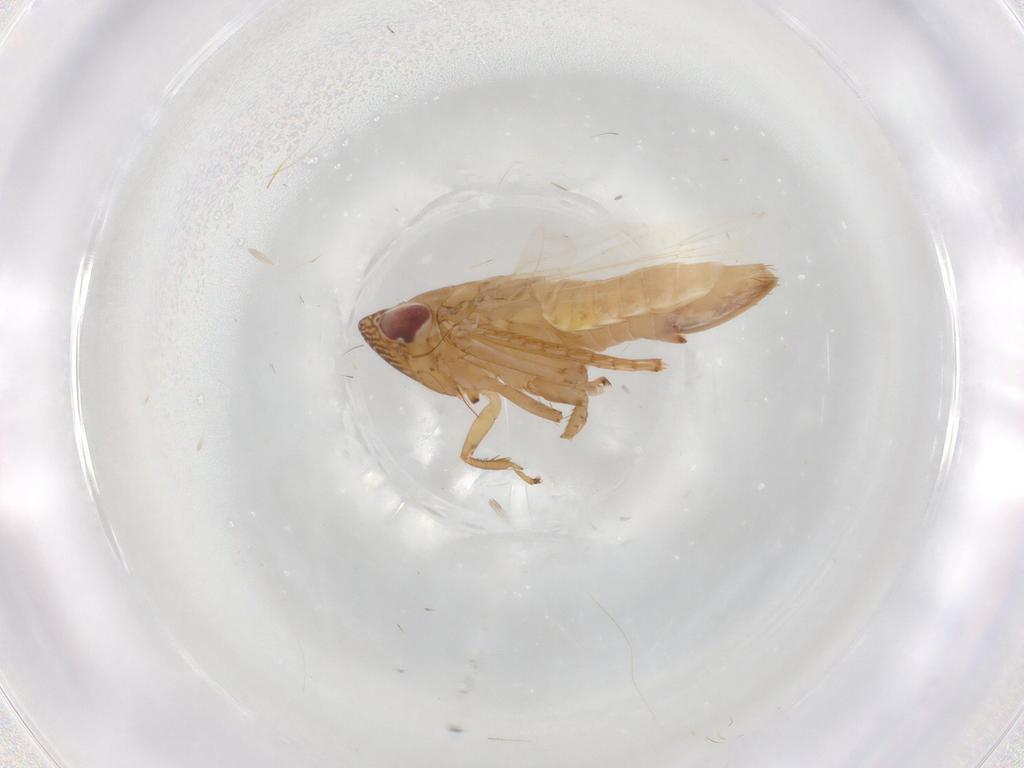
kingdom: Animalia
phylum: Arthropoda
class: Insecta
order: Hemiptera
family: Cicadellidae
